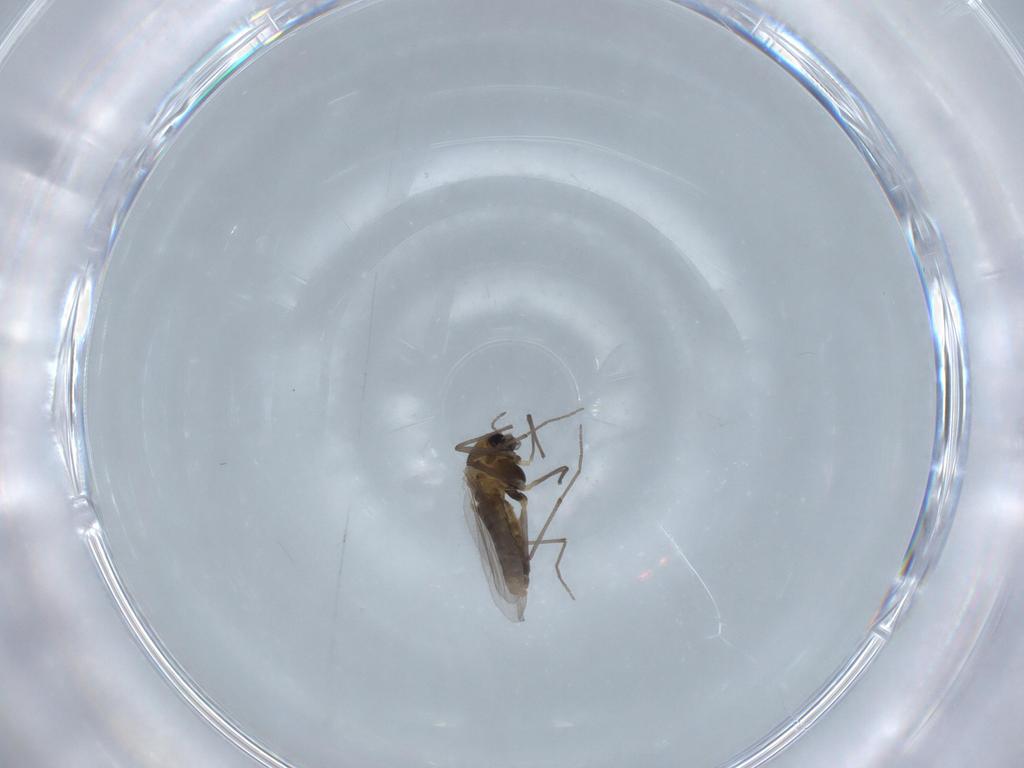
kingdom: Animalia
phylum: Arthropoda
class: Insecta
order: Diptera
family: Chironomidae
